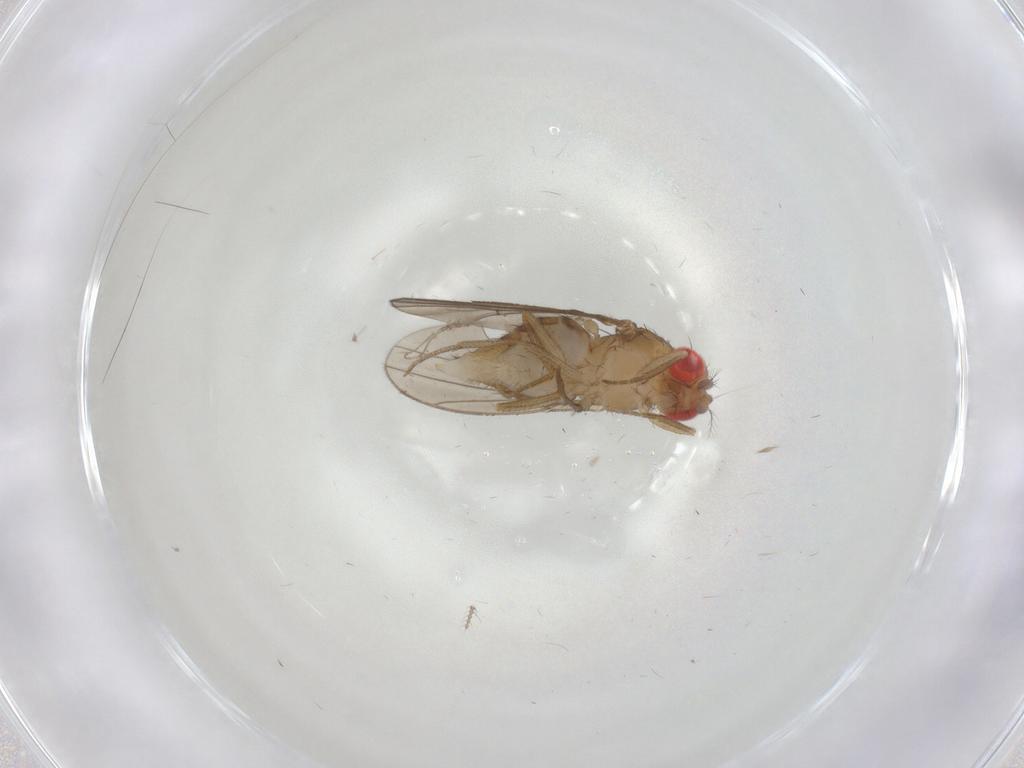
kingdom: Animalia
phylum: Arthropoda
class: Insecta
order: Diptera
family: Drosophilidae
